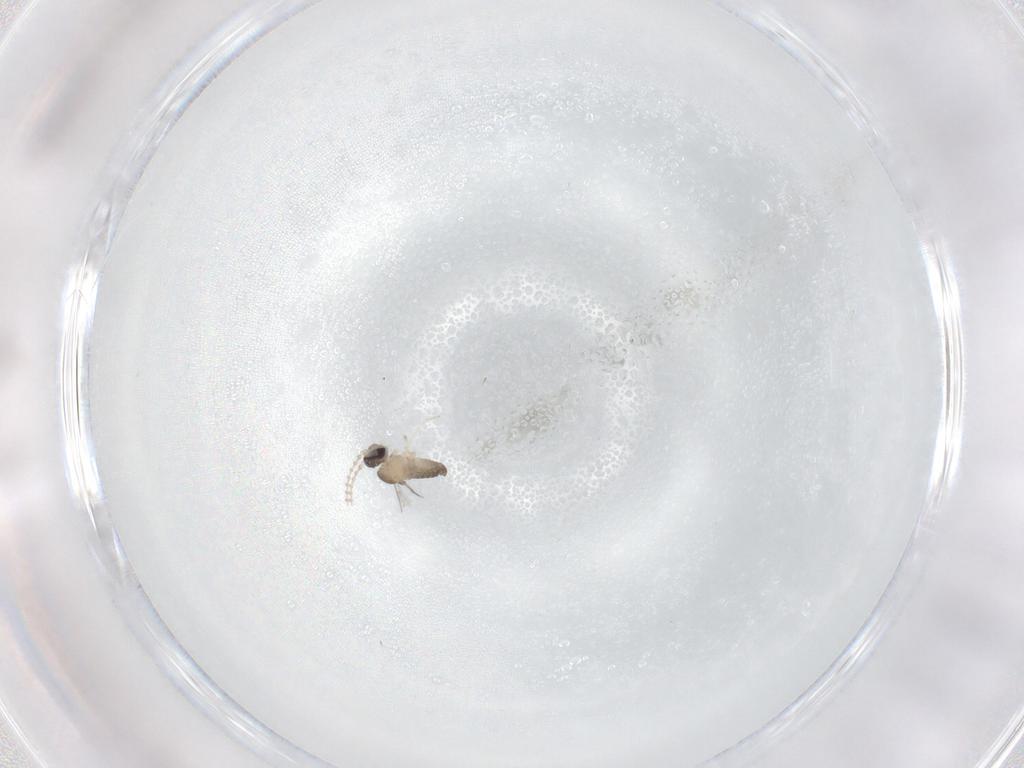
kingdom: Animalia
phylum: Arthropoda
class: Insecta
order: Diptera
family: Cecidomyiidae
